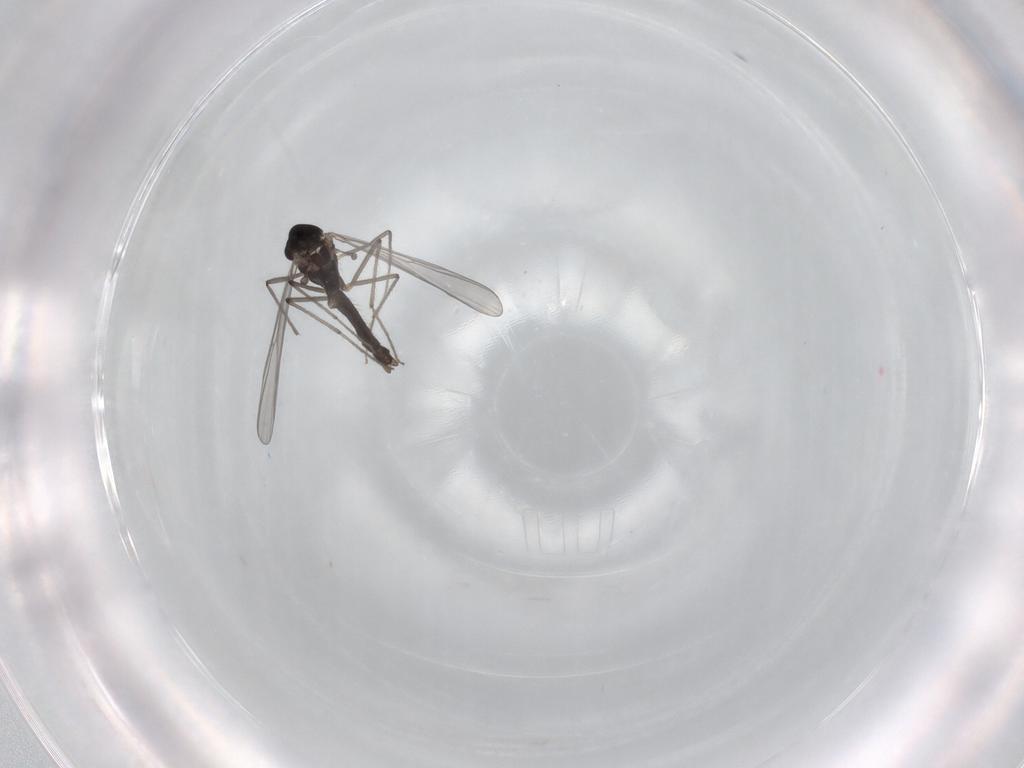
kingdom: Animalia
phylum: Arthropoda
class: Insecta
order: Diptera
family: Chironomidae
